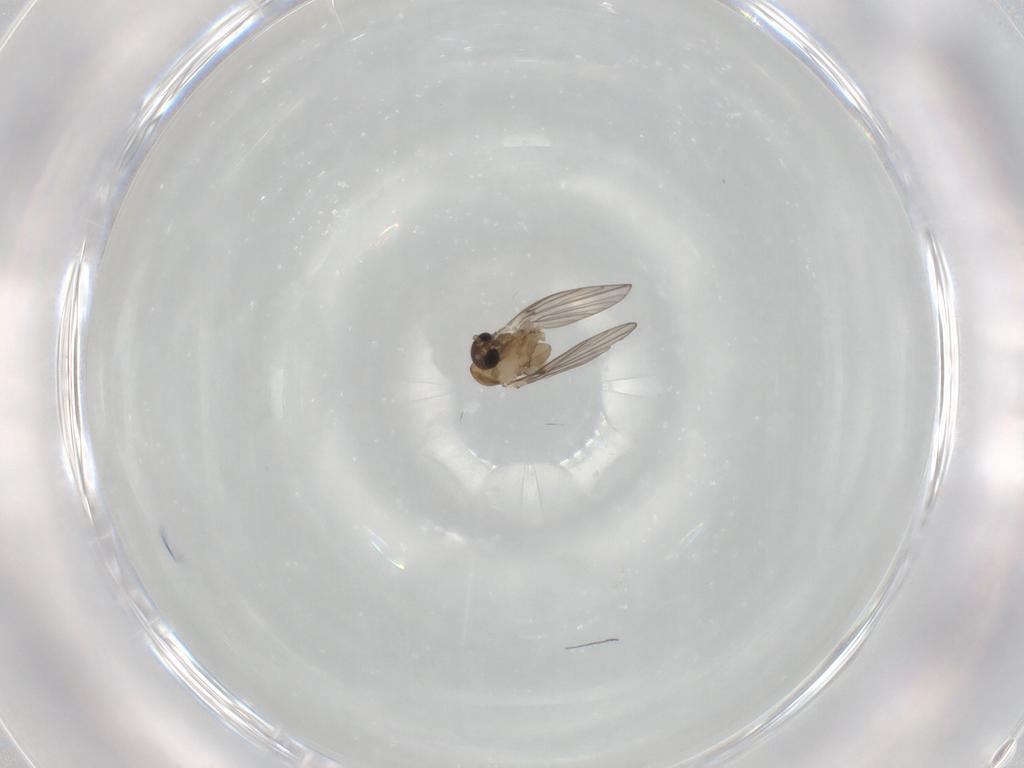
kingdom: Animalia
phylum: Arthropoda
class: Insecta
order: Diptera
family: Psychodidae
